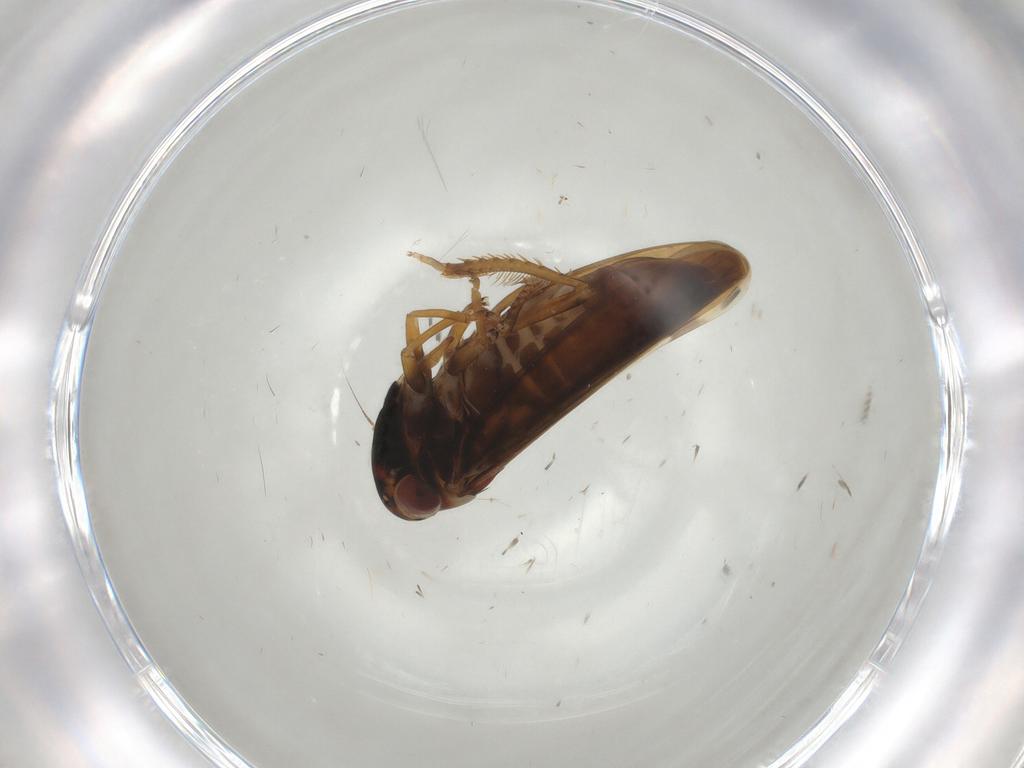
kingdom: Animalia
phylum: Arthropoda
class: Insecta
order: Hemiptera
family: Cicadellidae
